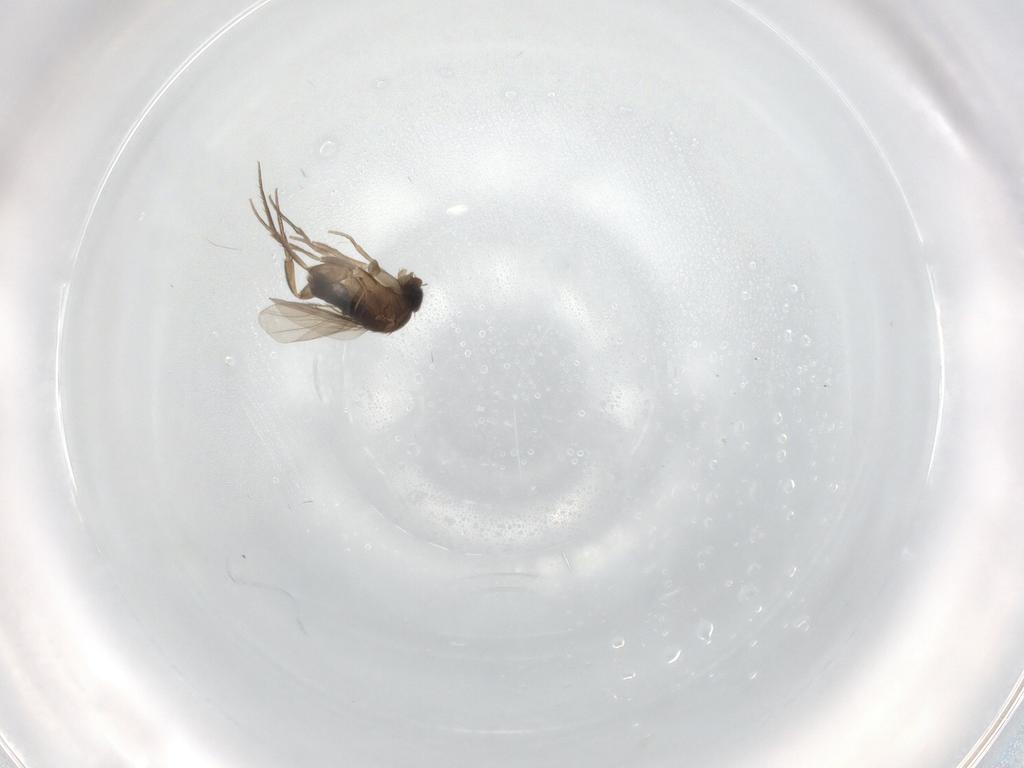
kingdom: Animalia
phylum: Arthropoda
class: Insecta
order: Diptera
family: Phoridae
